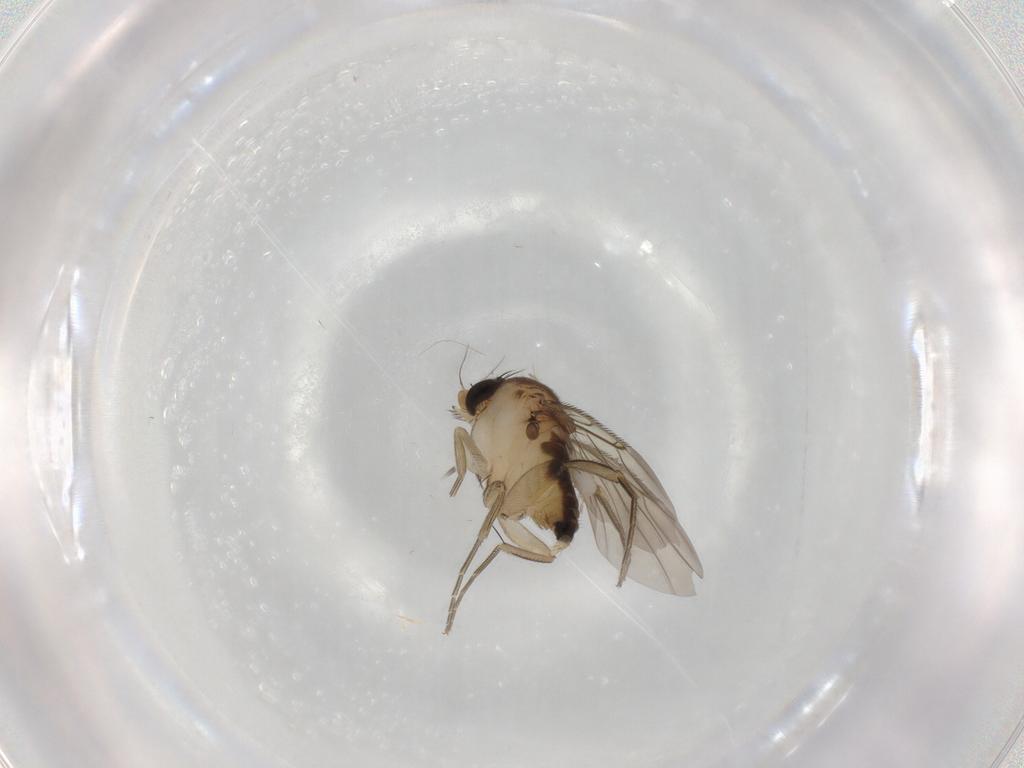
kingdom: Animalia
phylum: Arthropoda
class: Insecta
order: Diptera
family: Phoridae
